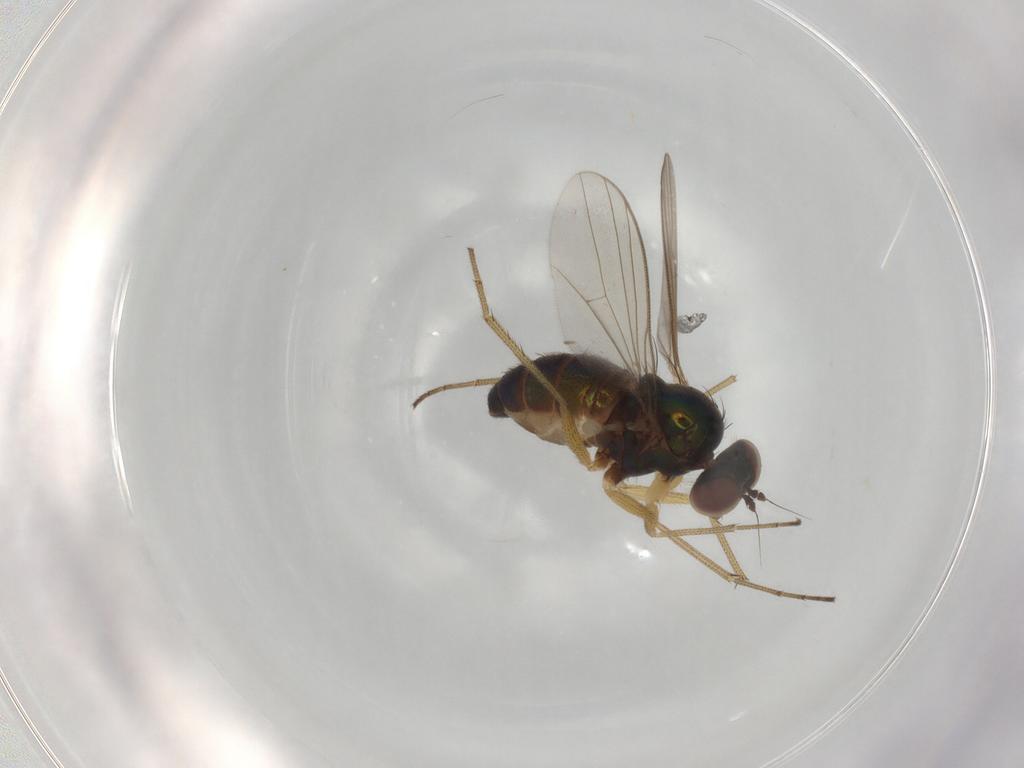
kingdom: Animalia
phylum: Arthropoda
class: Insecta
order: Diptera
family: Dolichopodidae
